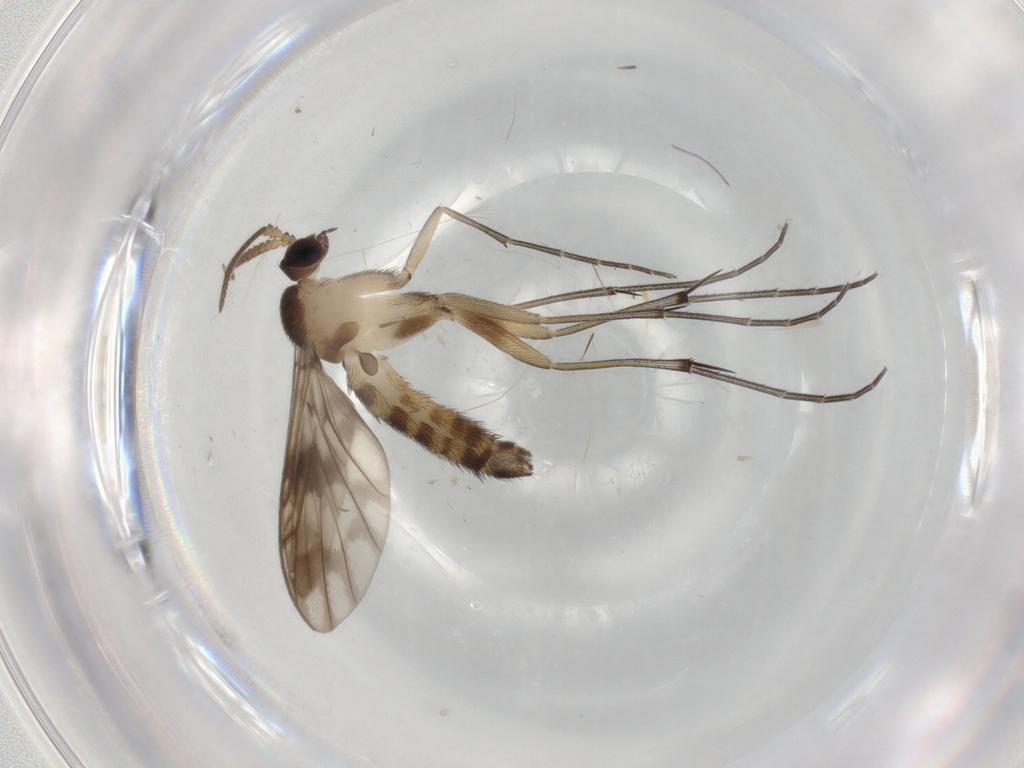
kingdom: Animalia
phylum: Arthropoda
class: Insecta
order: Diptera
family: Keroplatidae
